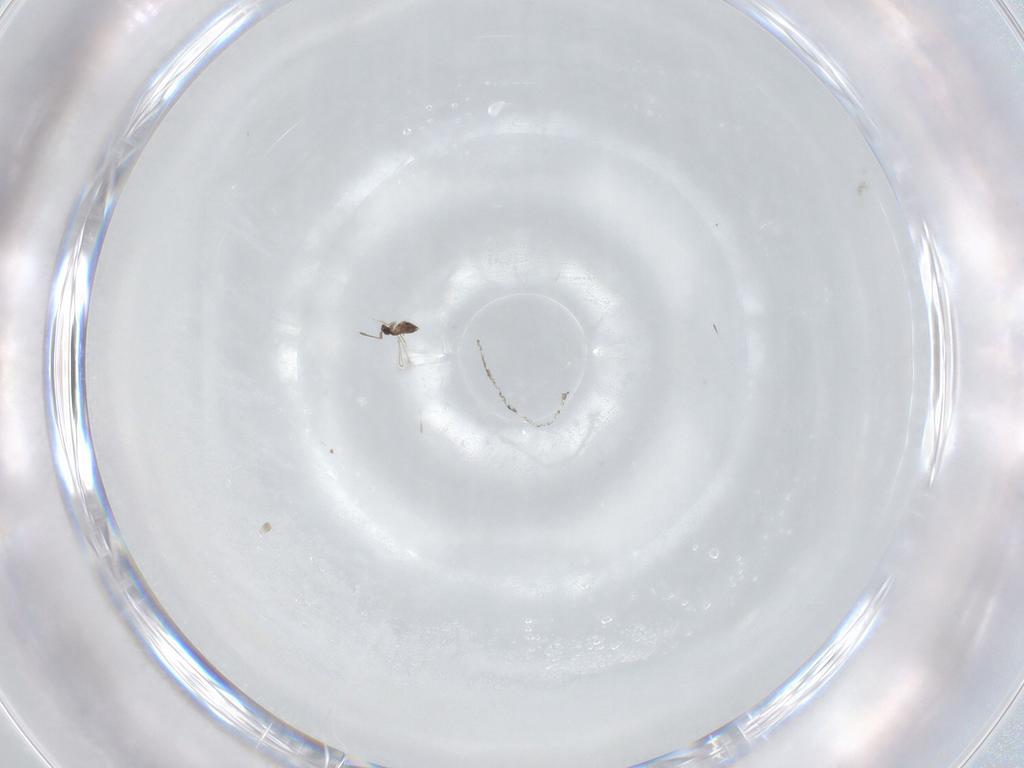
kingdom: Animalia
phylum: Arthropoda
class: Insecta
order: Hymenoptera
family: Mymaridae
